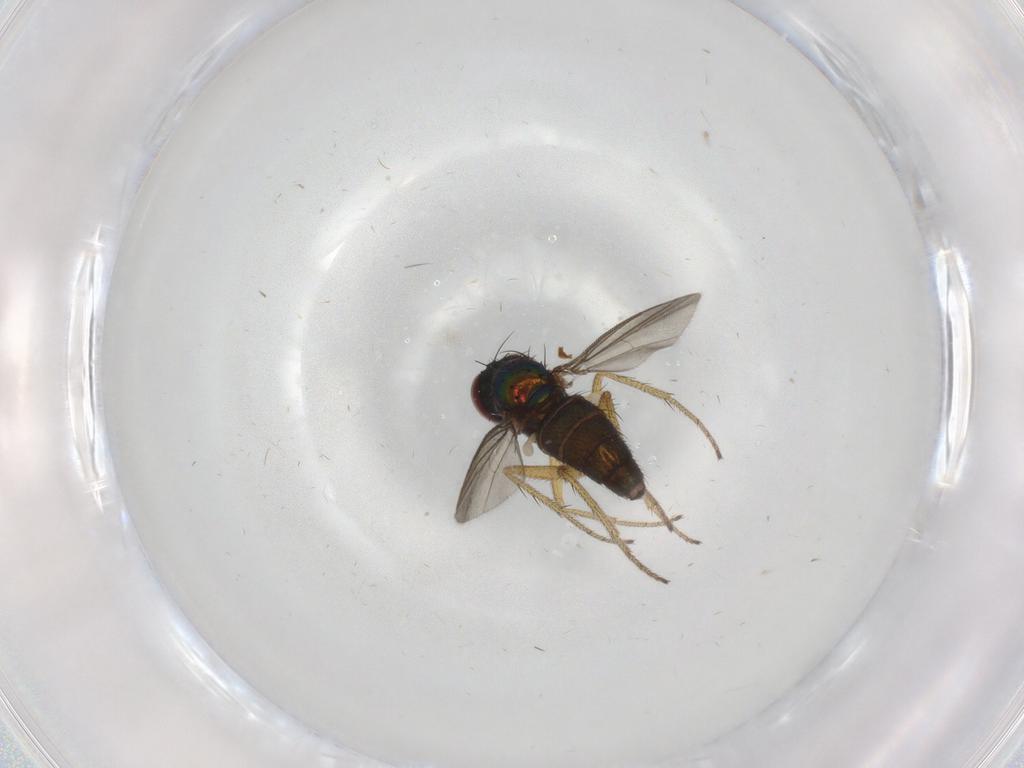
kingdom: Animalia
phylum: Arthropoda
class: Insecta
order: Diptera
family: Dolichopodidae
